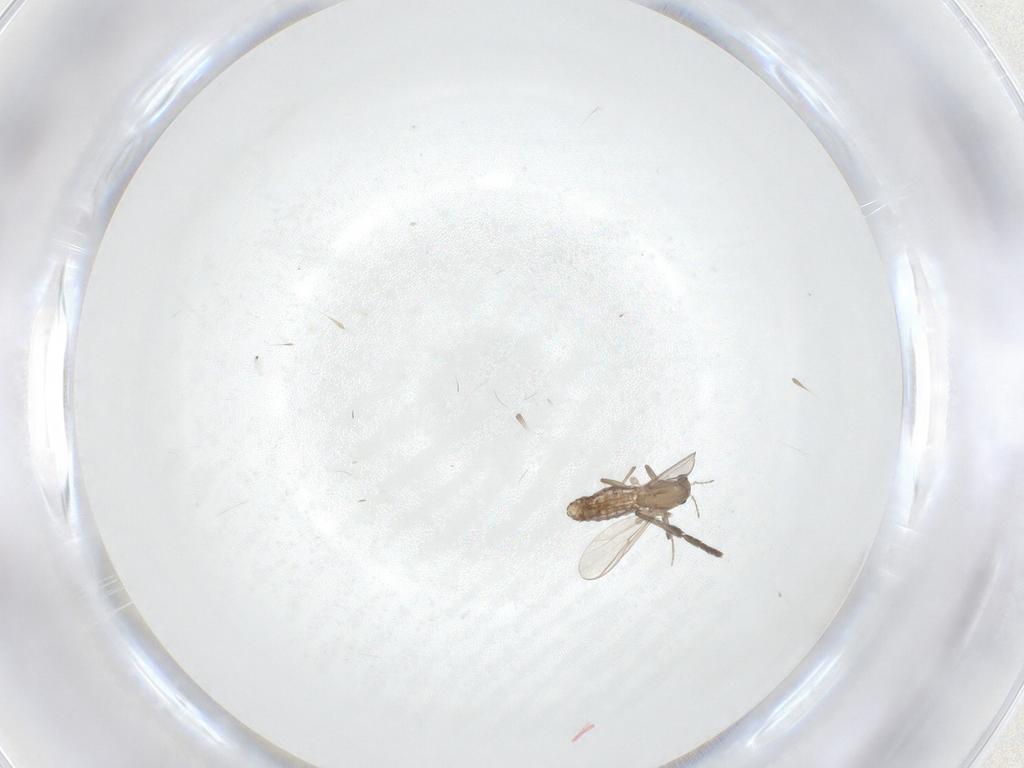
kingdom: Animalia
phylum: Arthropoda
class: Insecta
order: Diptera
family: Chironomidae
